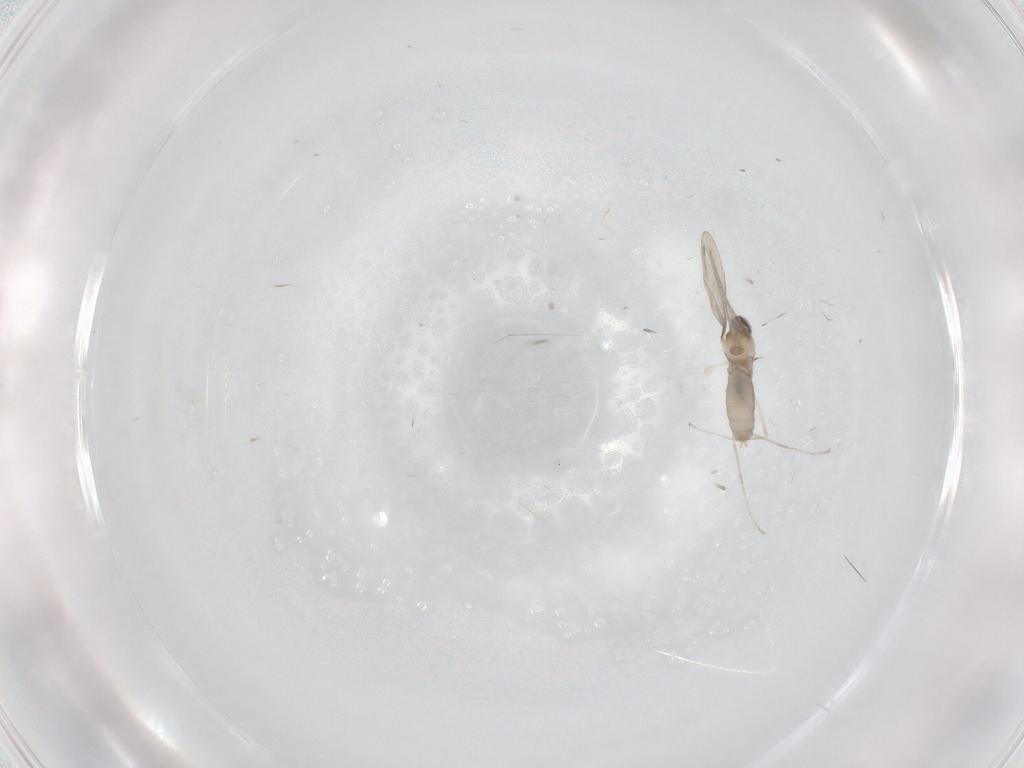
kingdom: Animalia
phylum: Arthropoda
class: Insecta
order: Diptera
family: Cecidomyiidae
